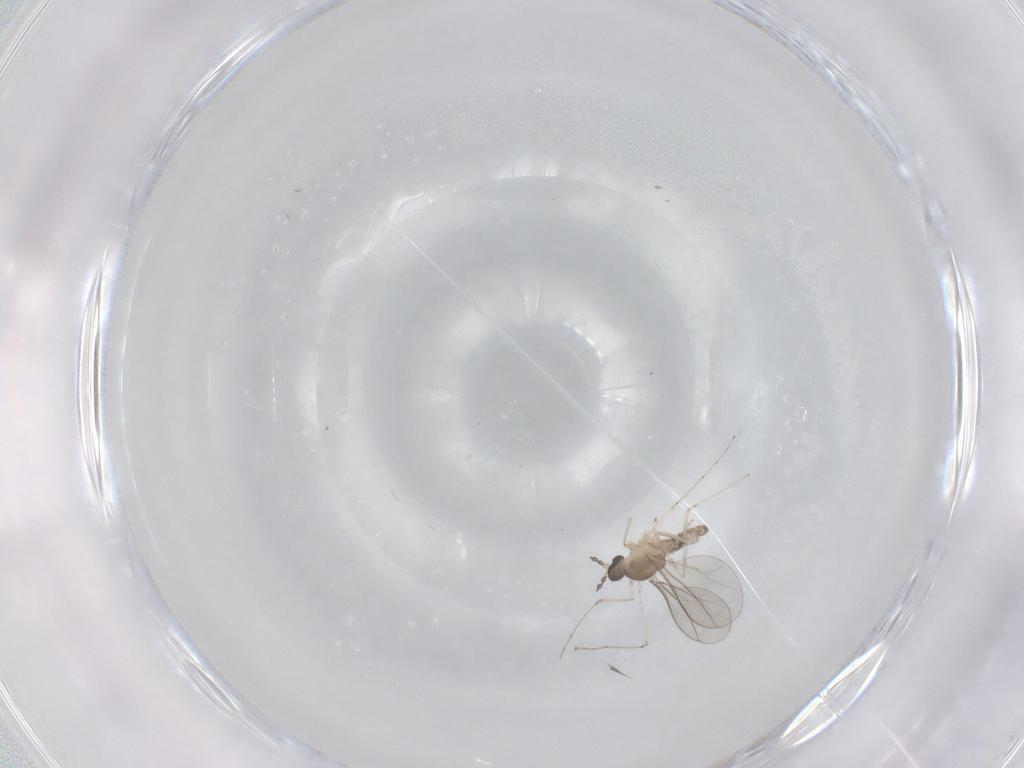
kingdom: Animalia
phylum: Arthropoda
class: Insecta
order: Diptera
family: Cecidomyiidae
